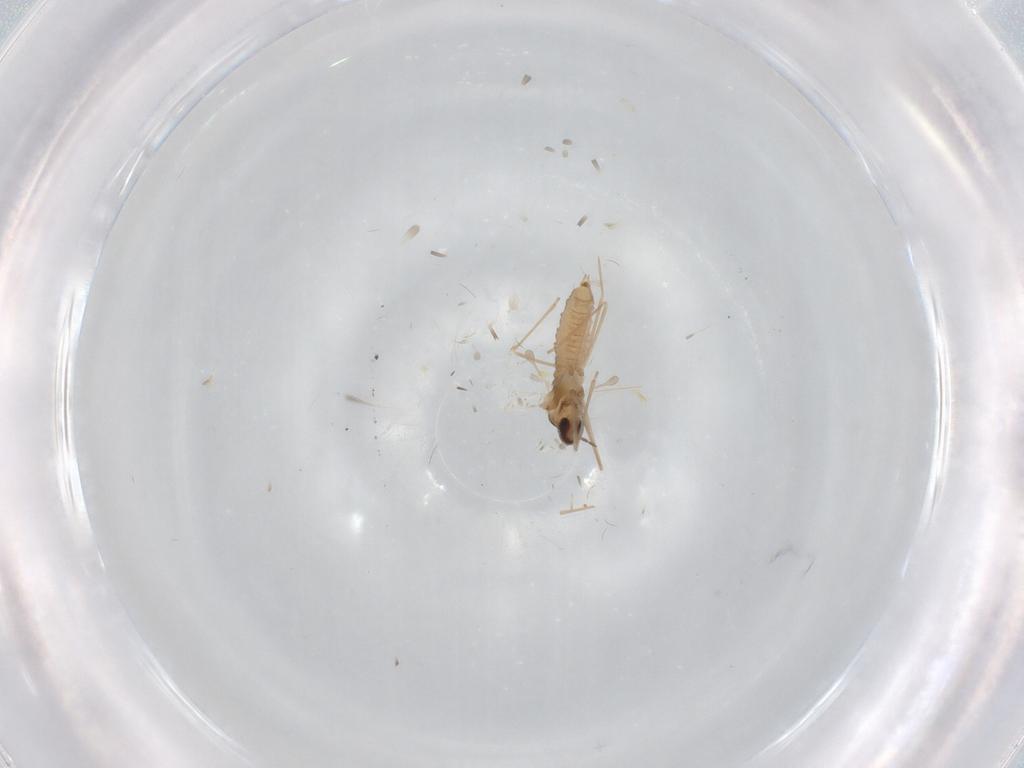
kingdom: Animalia
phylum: Arthropoda
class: Insecta
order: Diptera
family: Cecidomyiidae
